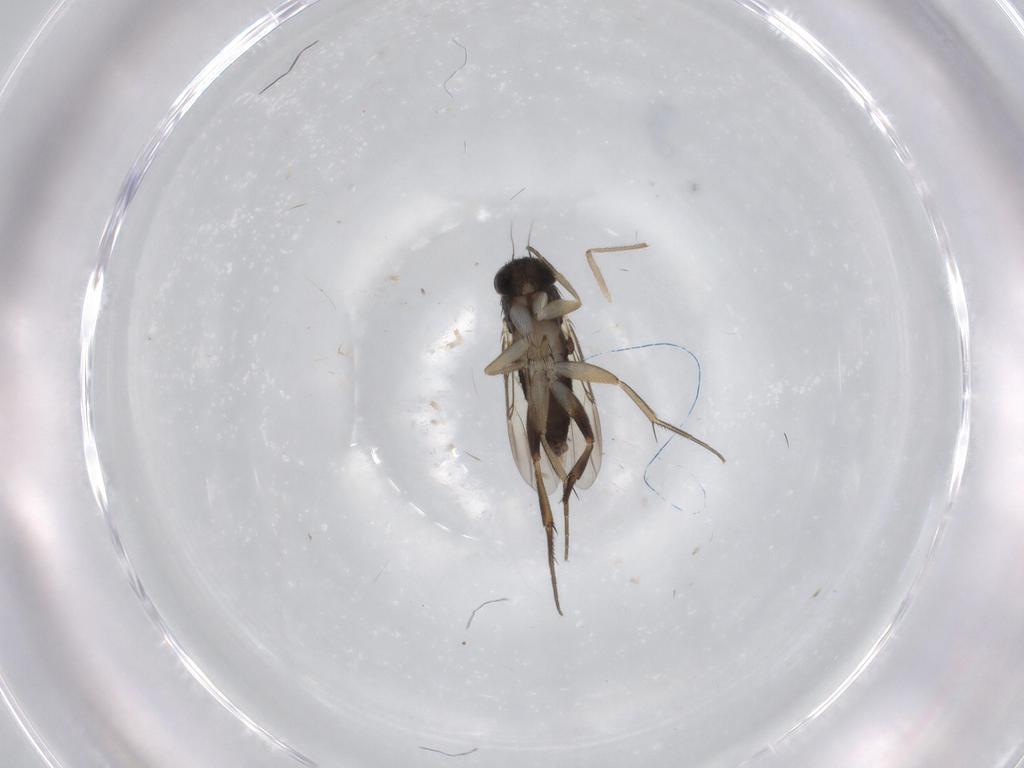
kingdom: Animalia
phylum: Arthropoda
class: Insecta
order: Diptera
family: Phoridae
